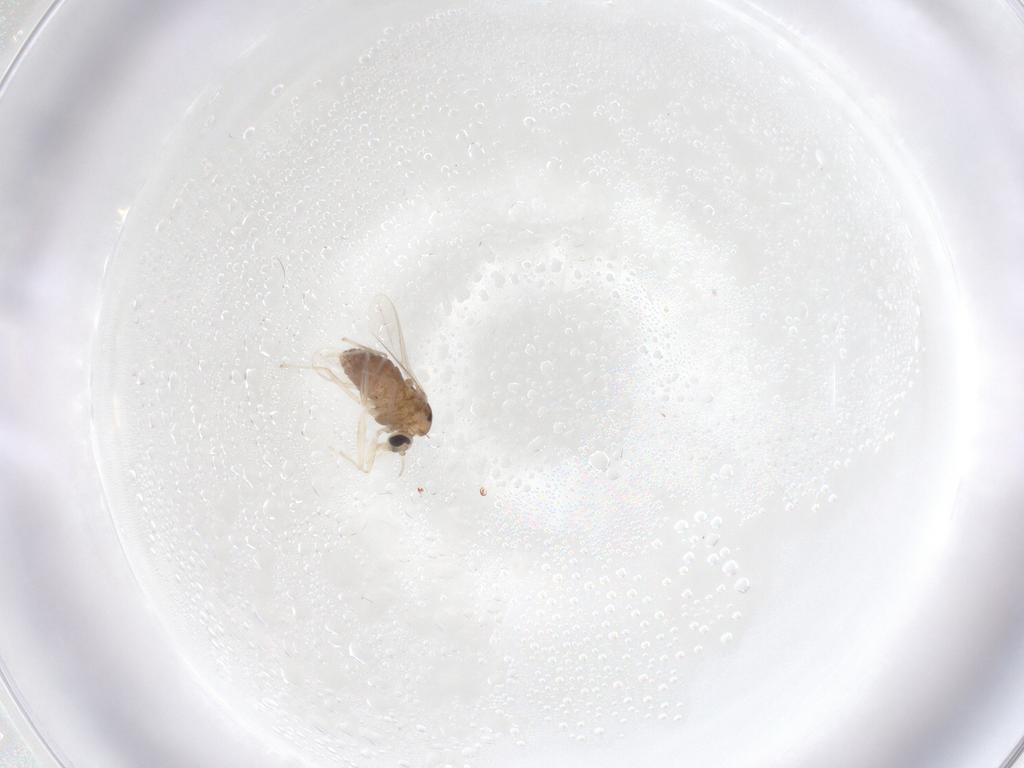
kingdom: Animalia
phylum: Arthropoda
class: Insecta
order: Diptera
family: Chironomidae
